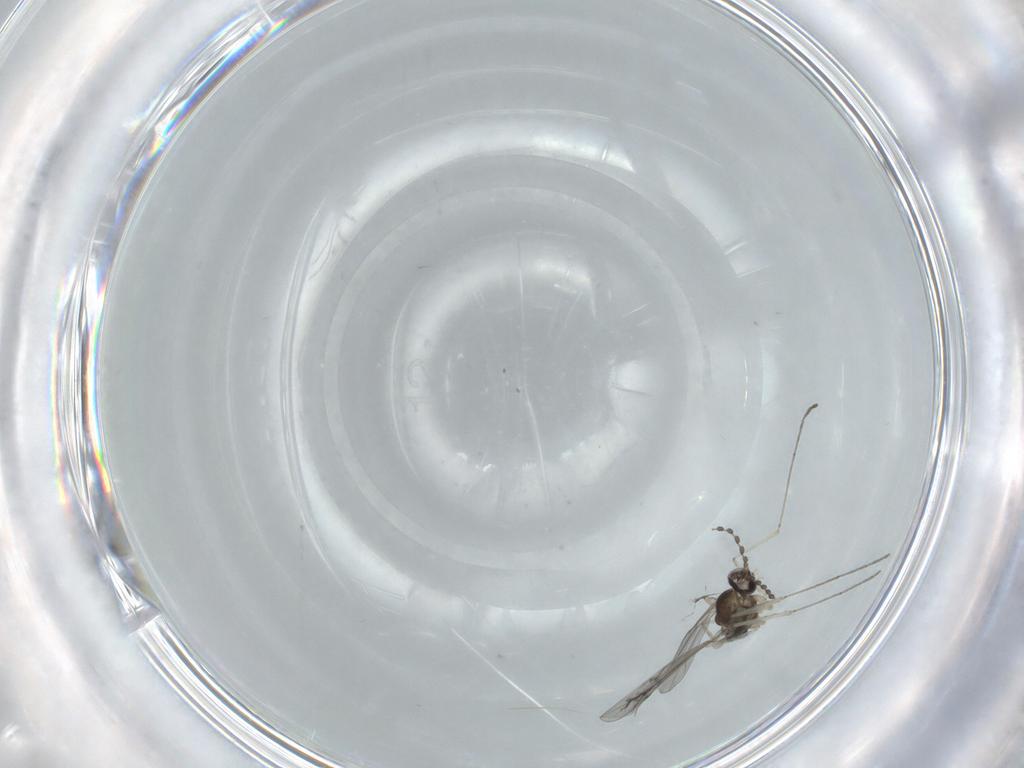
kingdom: Animalia
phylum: Arthropoda
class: Insecta
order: Diptera
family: Cecidomyiidae
